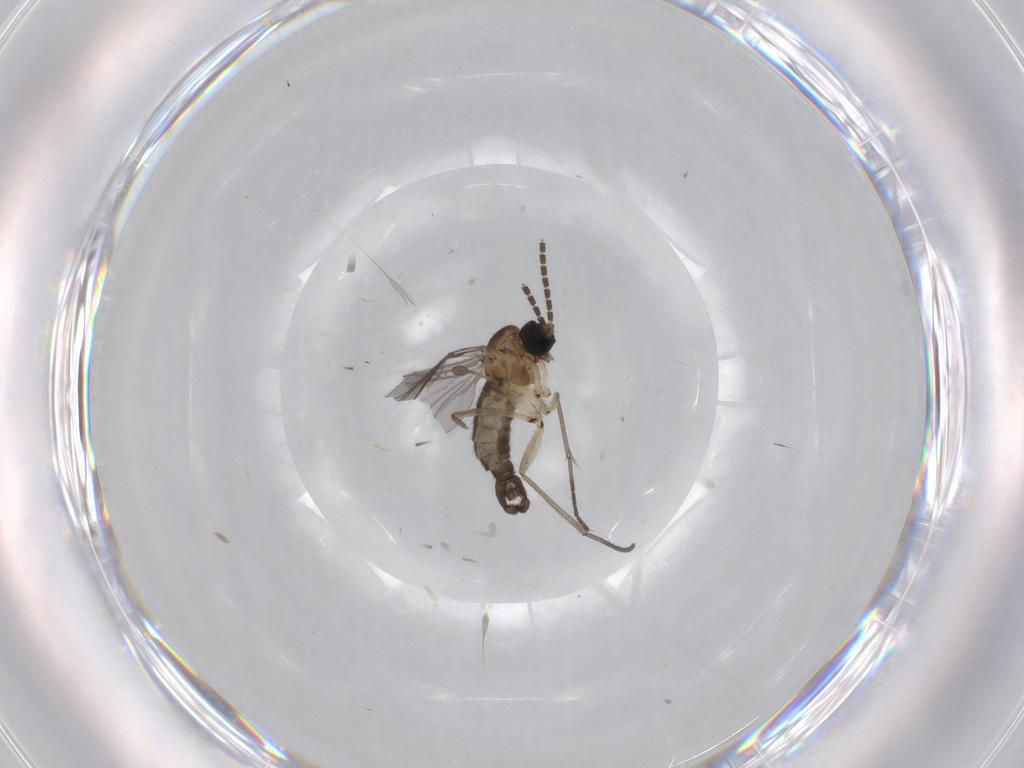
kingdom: Animalia
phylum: Arthropoda
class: Insecta
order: Diptera
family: Sciaridae
